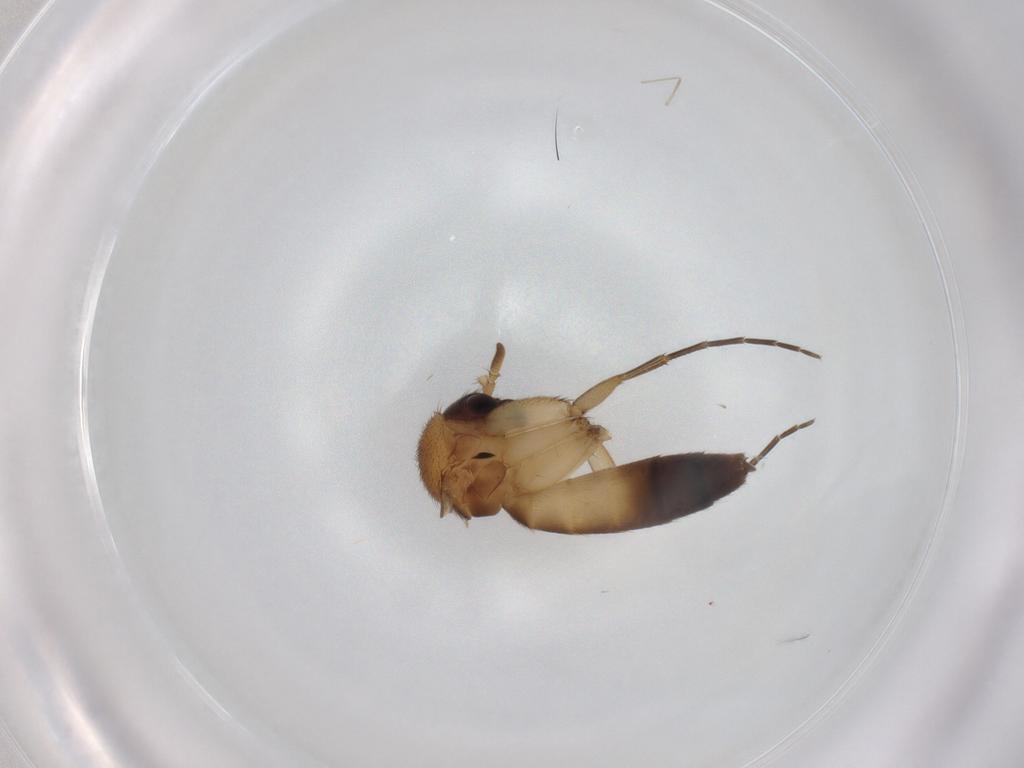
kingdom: Animalia
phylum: Arthropoda
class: Insecta
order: Diptera
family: Mycetophilidae
